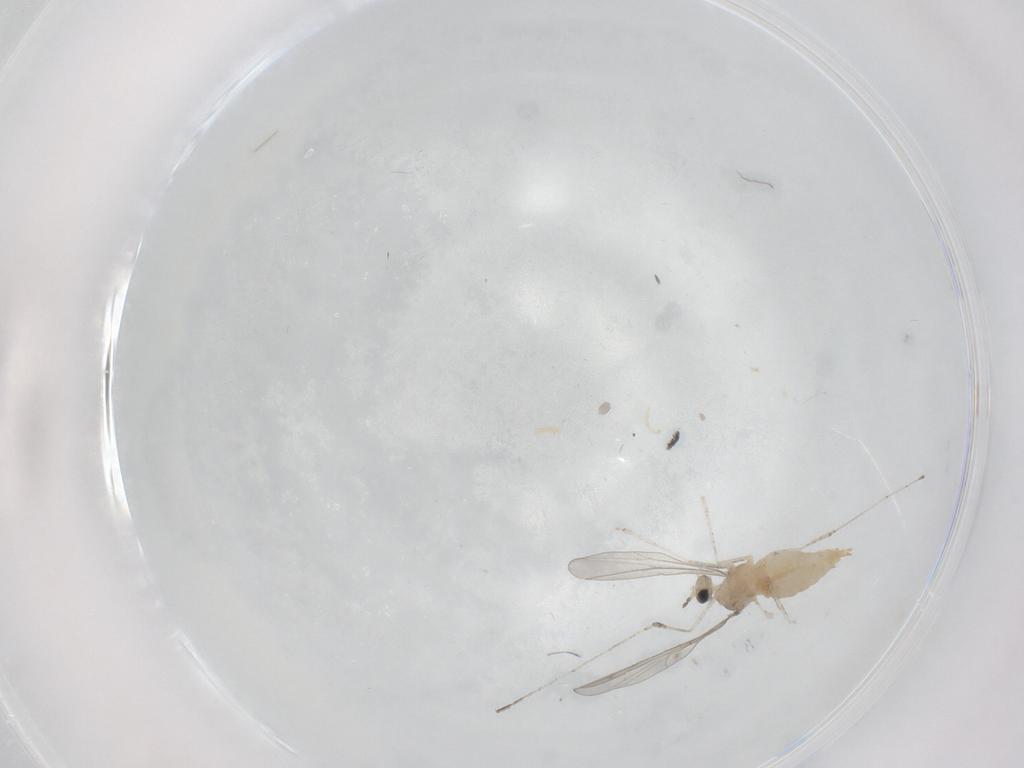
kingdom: Animalia
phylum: Arthropoda
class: Insecta
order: Diptera
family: Cecidomyiidae
